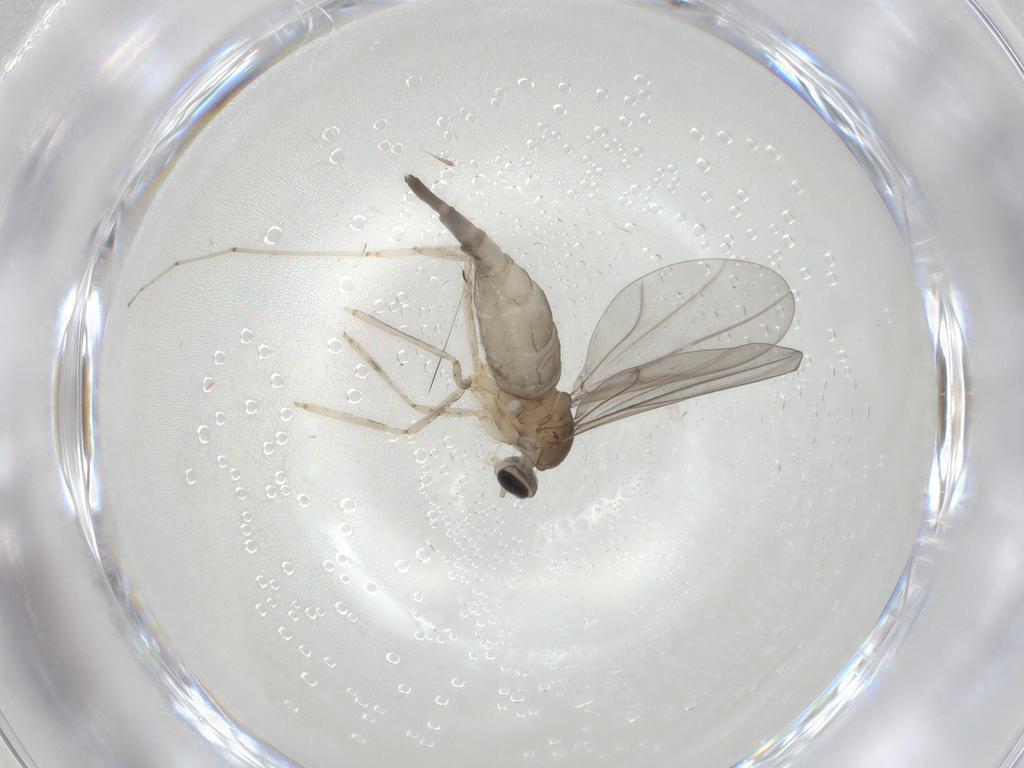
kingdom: Animalia
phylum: Arthropoda
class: Insecta
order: Diptera
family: Cecidomyiidae
